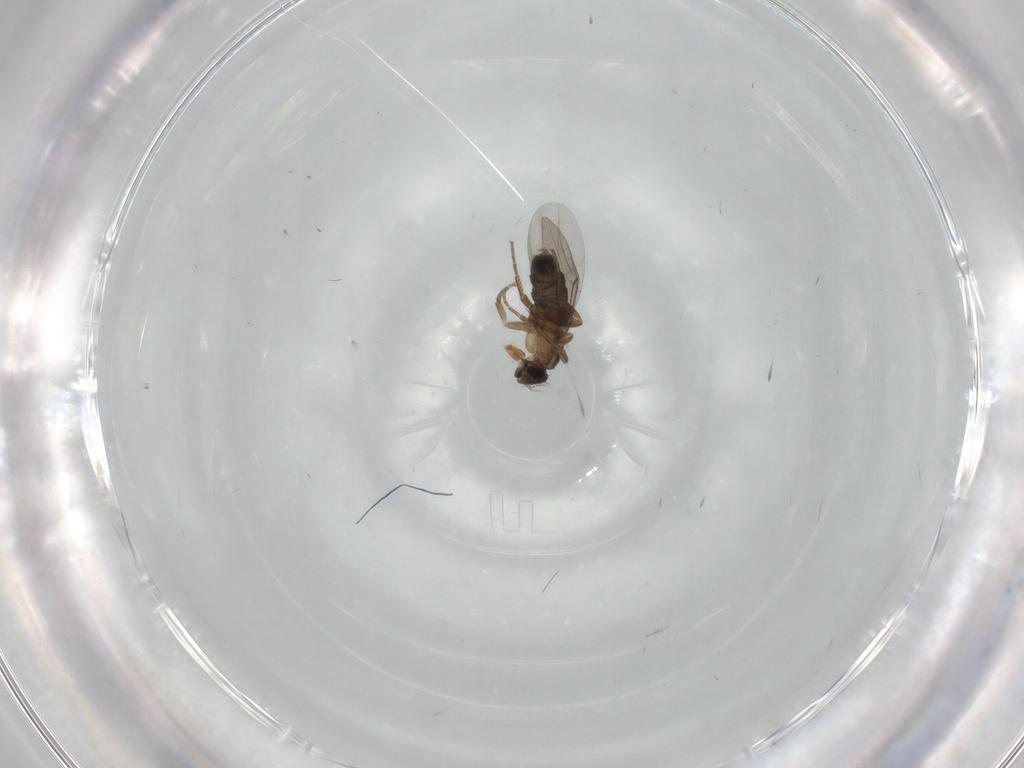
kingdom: Animalia
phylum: Arthropoda
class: Insecta
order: Diptera
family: Phoridae
